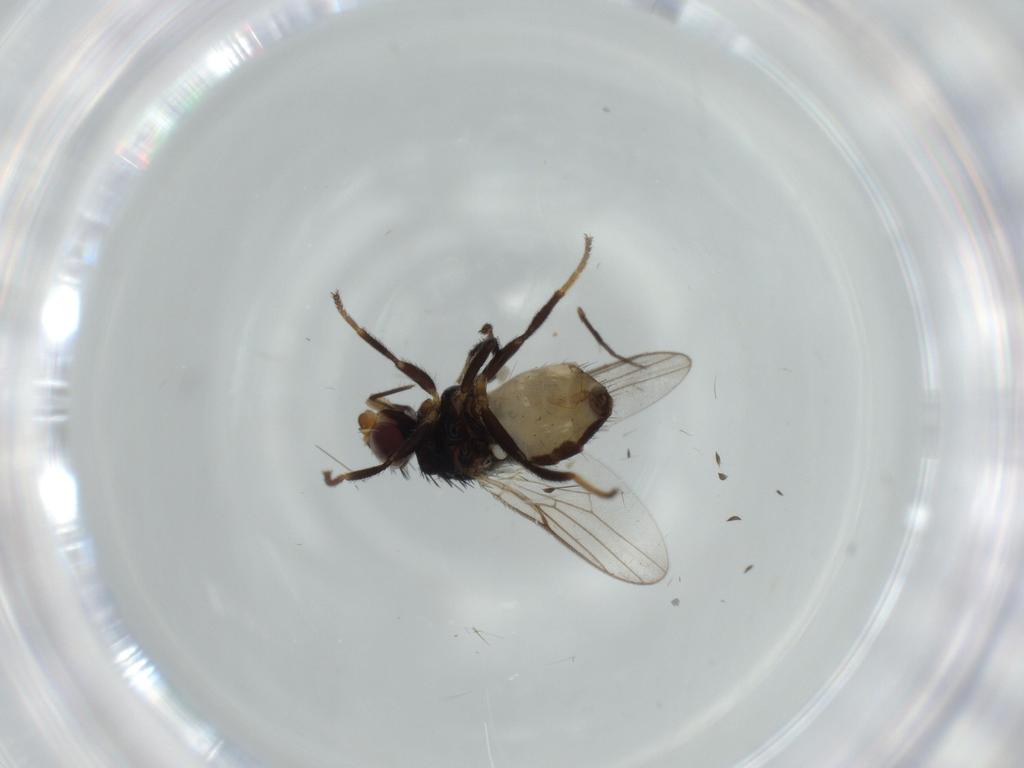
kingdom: Animalia
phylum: Arthropoda
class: Insecta
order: Diptera
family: Chloropidae
